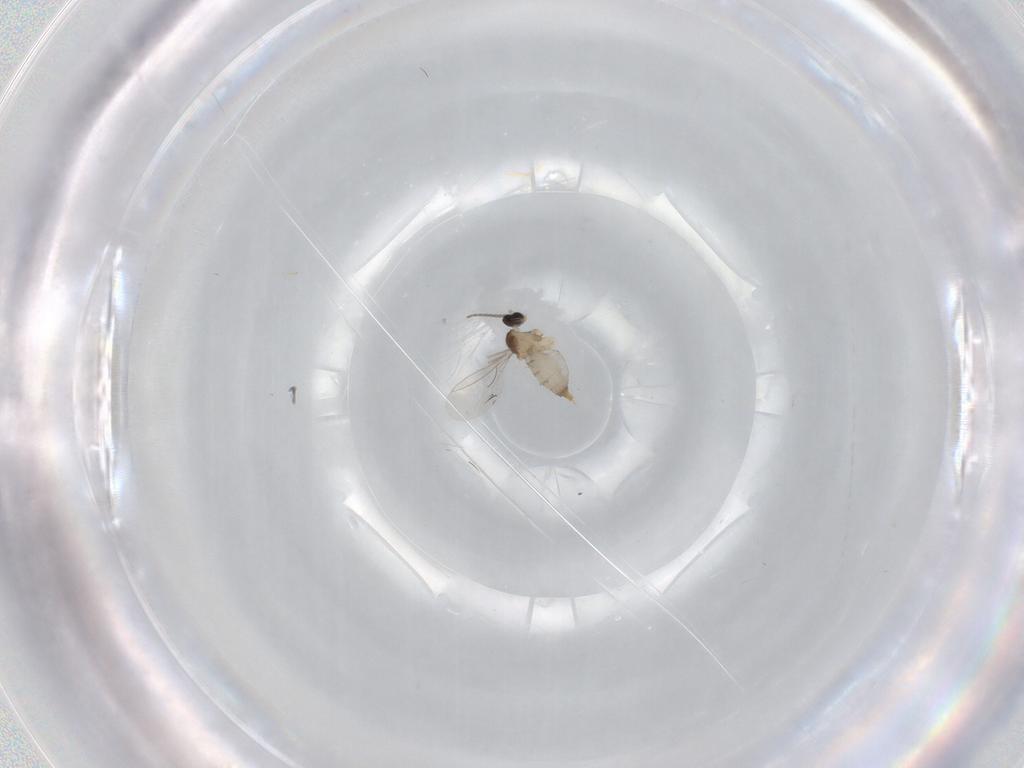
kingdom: Animalia
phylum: Arthropoda
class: Insecta
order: Diptera
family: Cecidomyiidae
